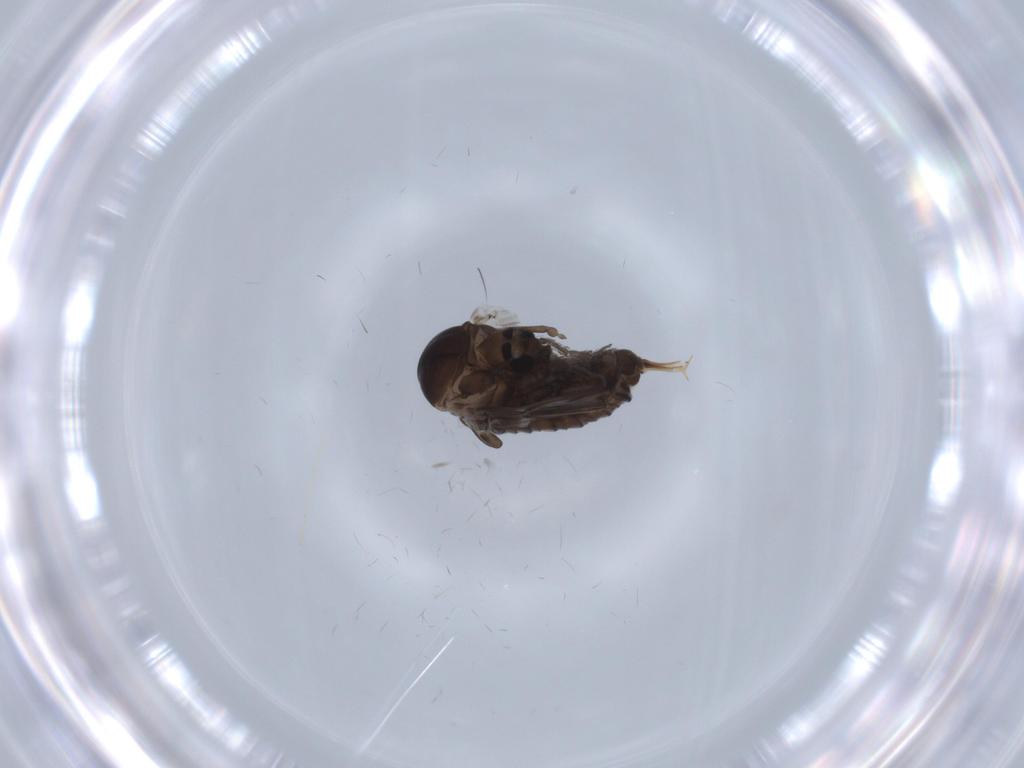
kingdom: Animalia
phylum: Arthropoda
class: Insecta
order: Diptera
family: Psychodidae
